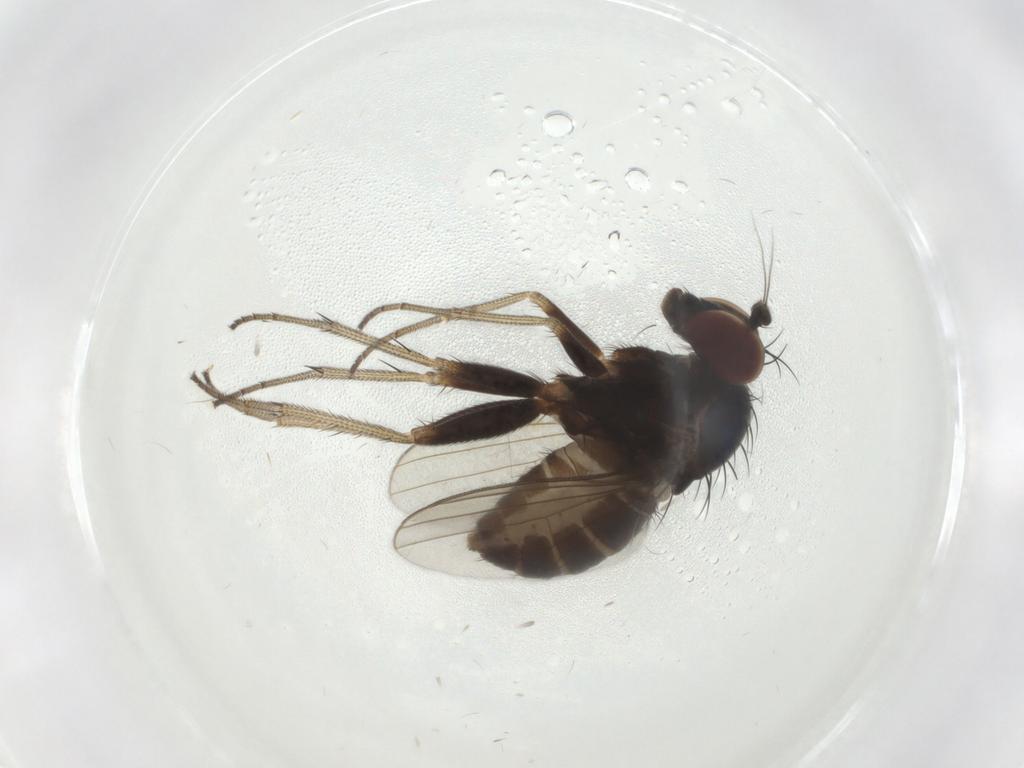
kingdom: Animalia
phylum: Arthropoda
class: Insecta
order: Diptera
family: Dolichopodidae
